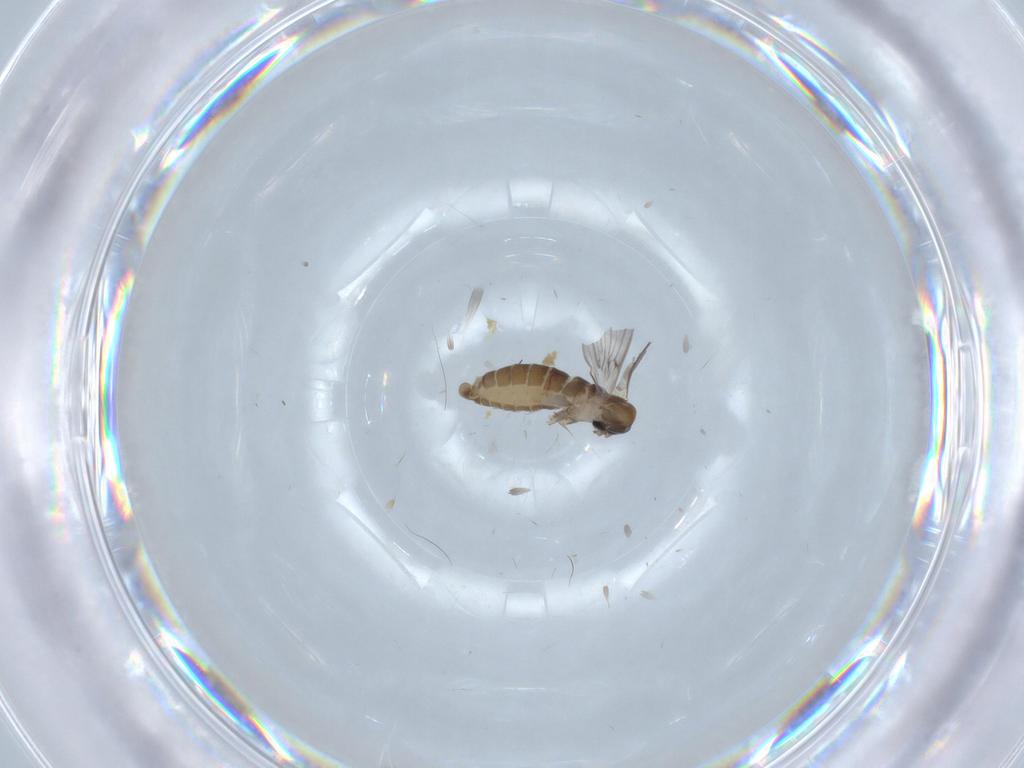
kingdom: Animalia
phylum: Arthropoda
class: Insecta
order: Diptera
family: Psychodidae
